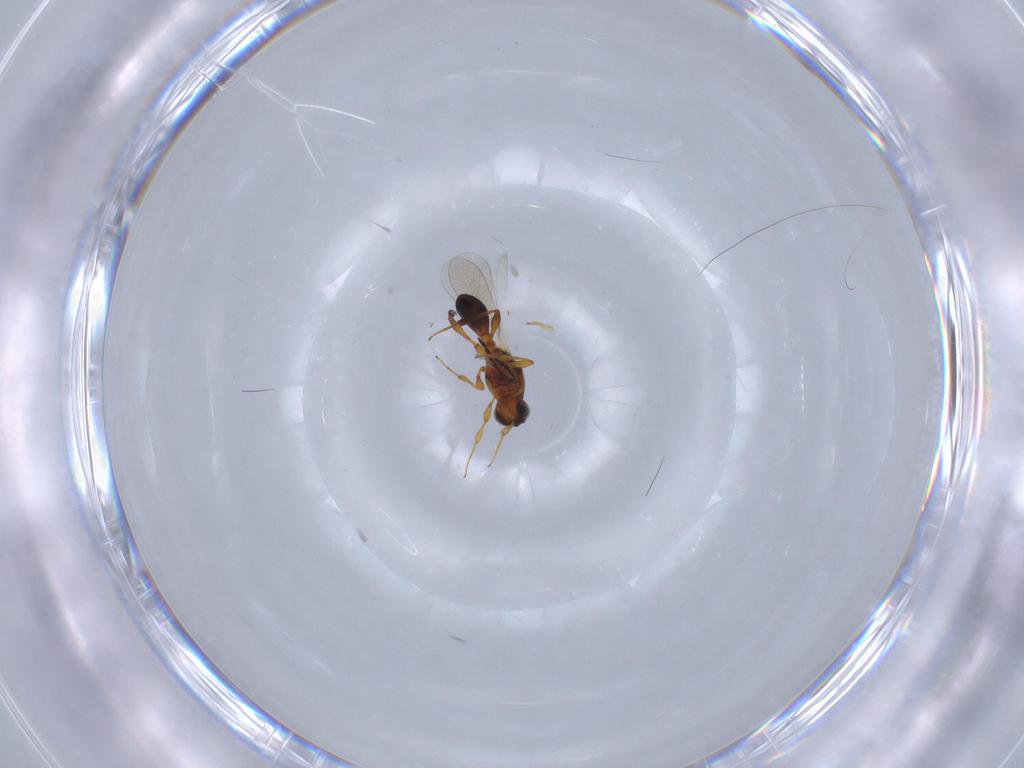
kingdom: Animalia
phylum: Arthropoda
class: Insecta
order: Hymenoptera
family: Platygastridae
